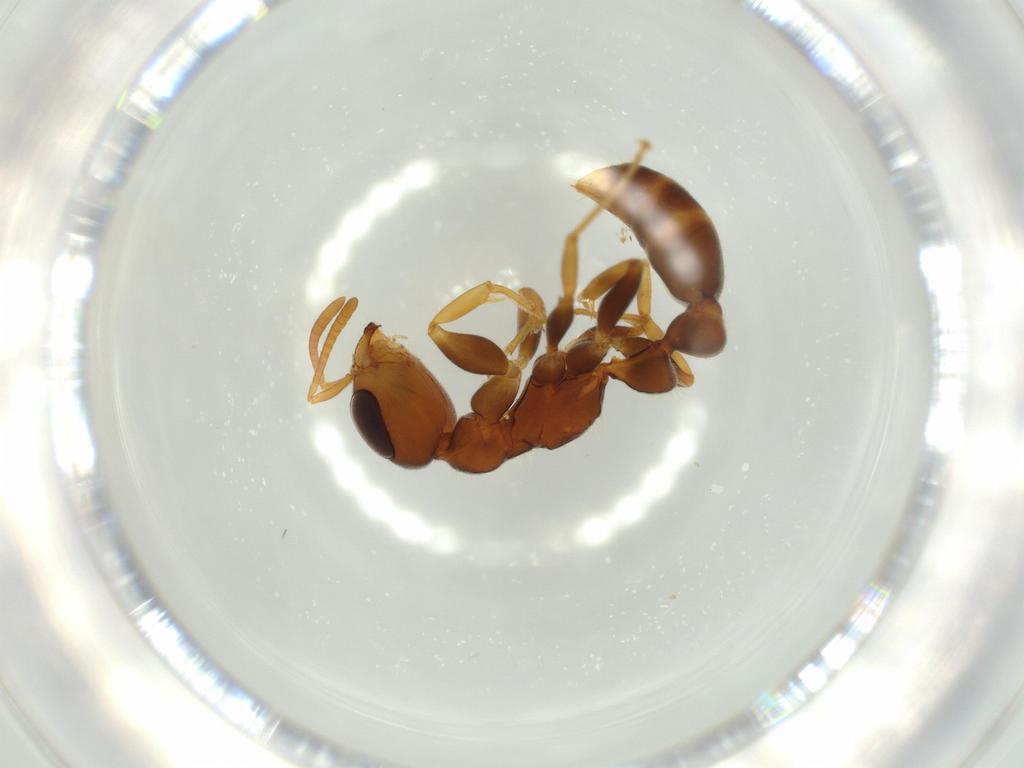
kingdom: Animalia
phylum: Arthropoda
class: Insecta
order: Hymenoptera
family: Formicidae
